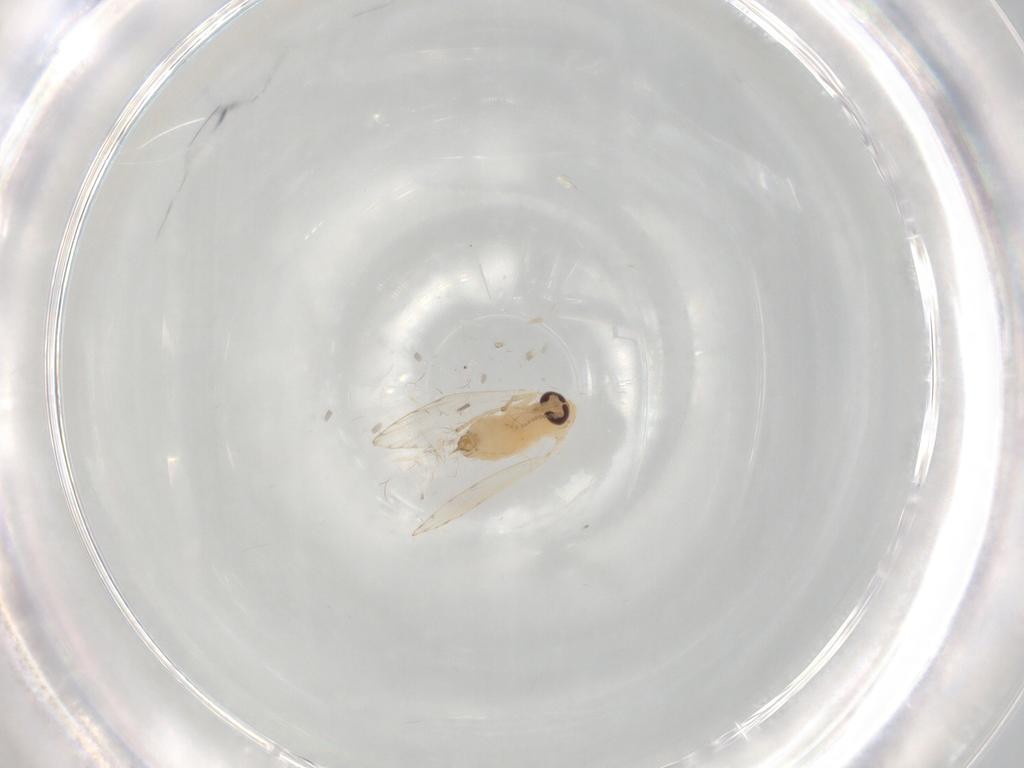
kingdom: Animalia
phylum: Arthropoda
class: Insecta
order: Diptera
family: Psychodidae
